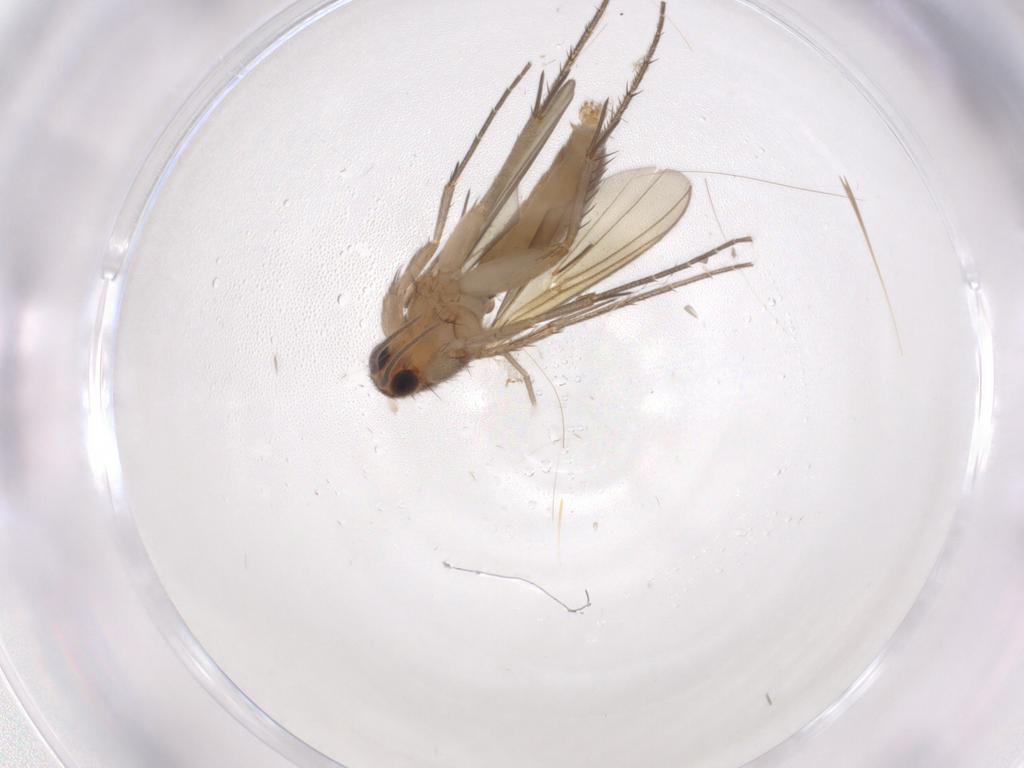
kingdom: Animalia
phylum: Arthropoda
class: Insecta
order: Diptera
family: Mycetophilidae
